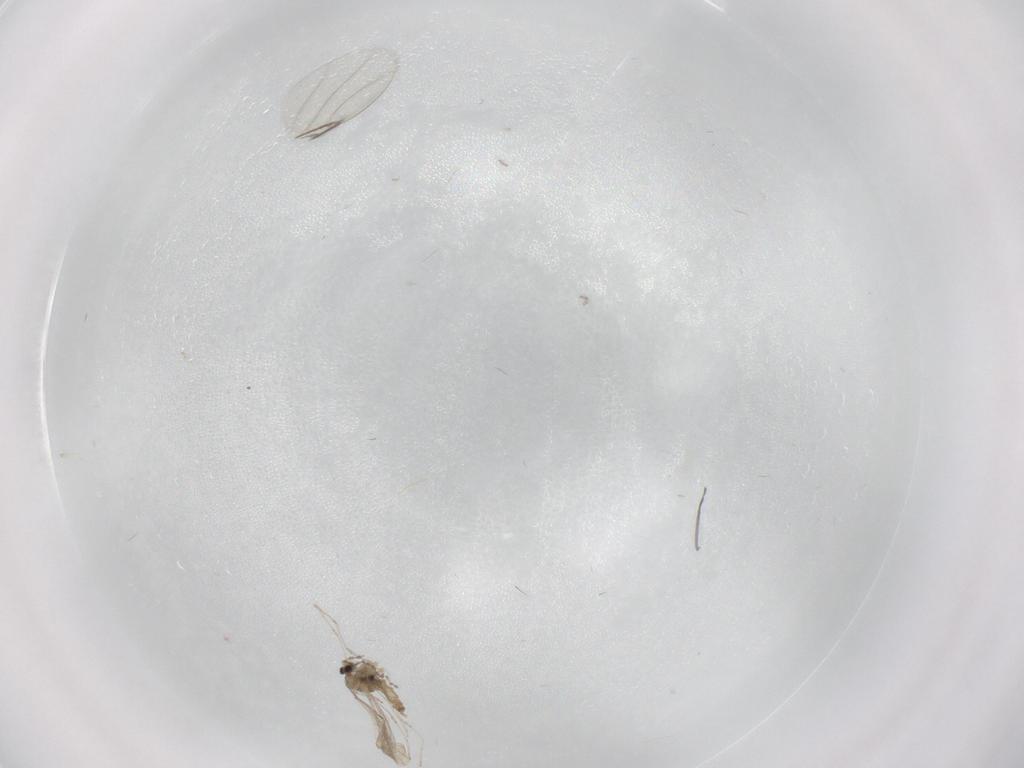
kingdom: Animalia
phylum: Arthropoda
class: Insecta
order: Diptera
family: Cecidomyiidae
